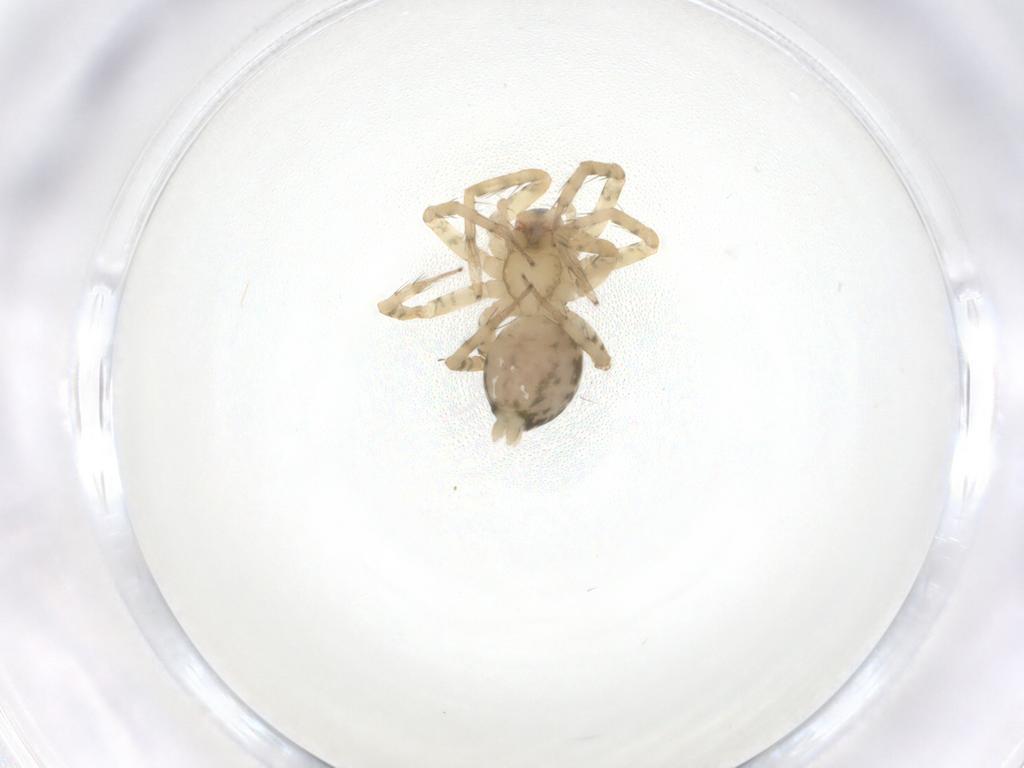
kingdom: Animalia
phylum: Arthropoda
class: Arachnida
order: Araneae
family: Amaurobiidae
